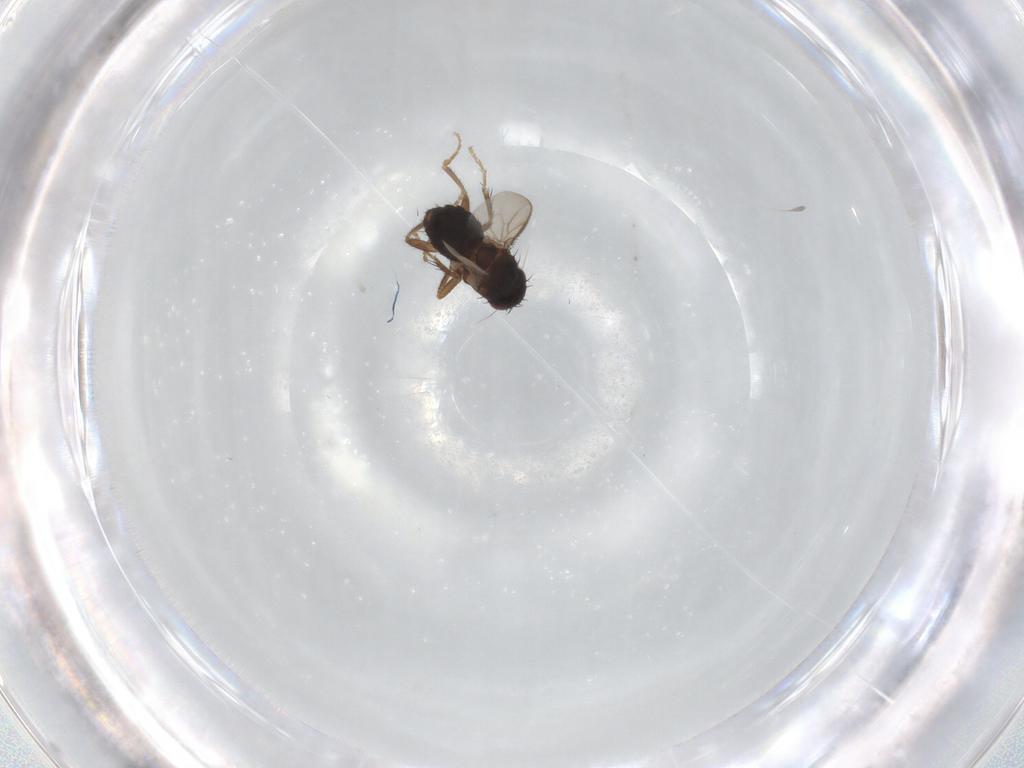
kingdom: Animalia
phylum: Arthropoda
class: Insecta
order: Diptera
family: Sphaeroceridae
